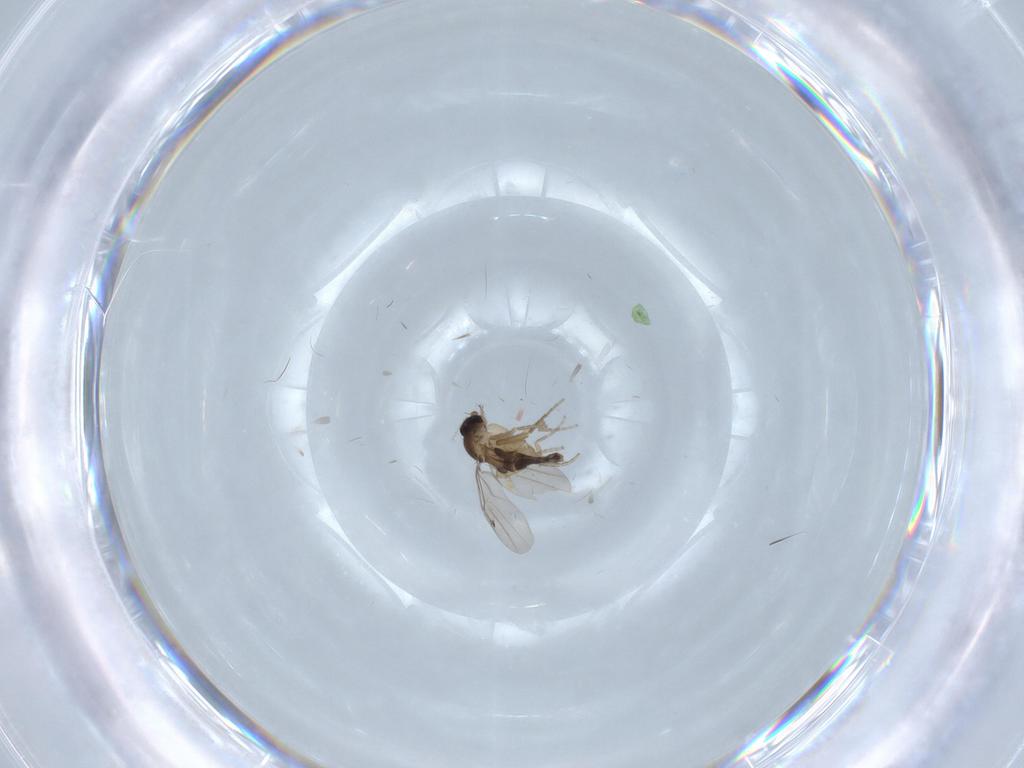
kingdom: Animalia
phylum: Arthropoda
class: Insecta
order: Diptera
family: Phoridae
